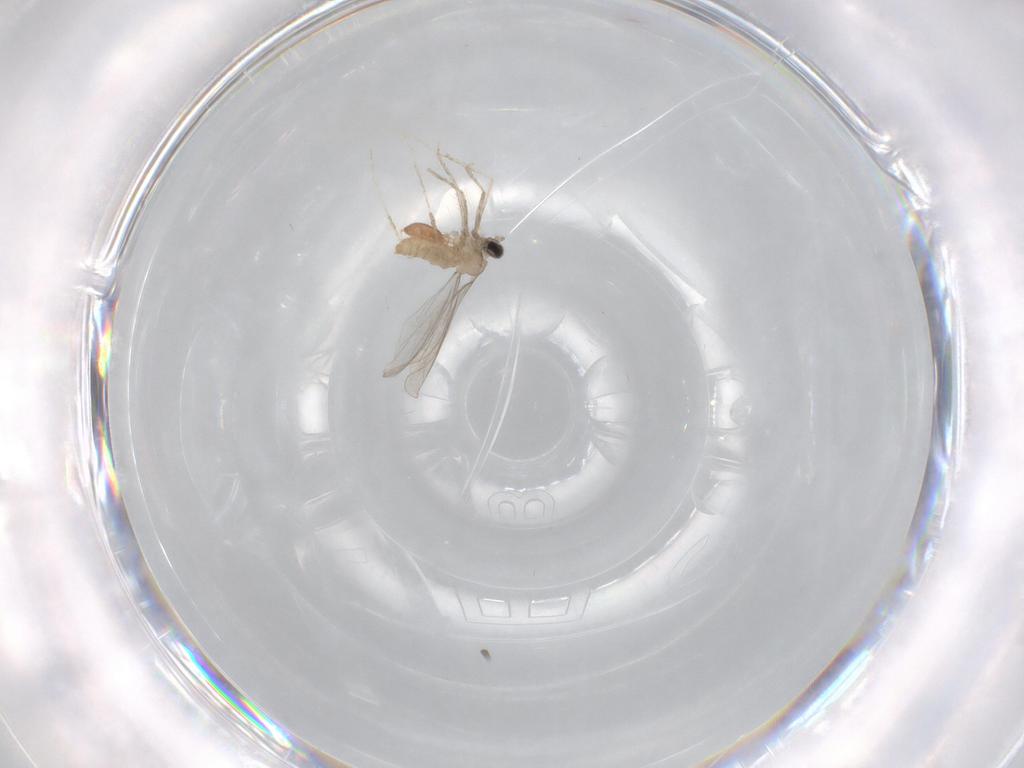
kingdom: Animalia
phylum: Arthropoda
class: Insecta
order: Diptera
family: Cecidomyiidae
